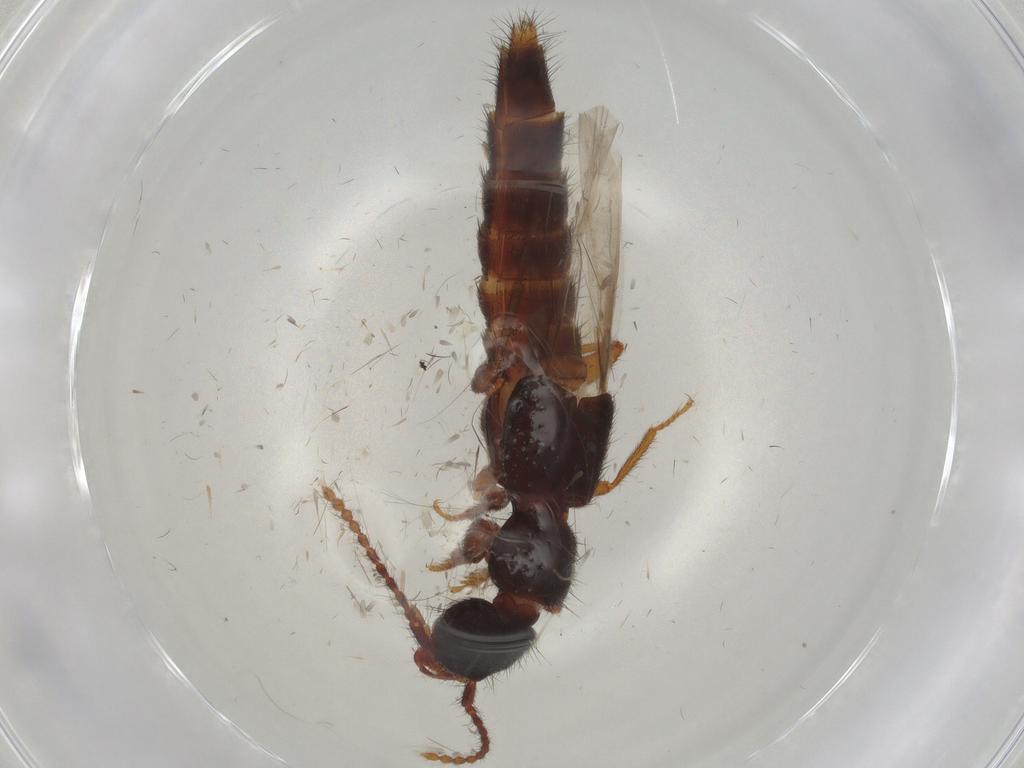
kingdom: Animalia
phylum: Arthropoda
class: Insecta
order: Coleoptera
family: Staphylinidae
